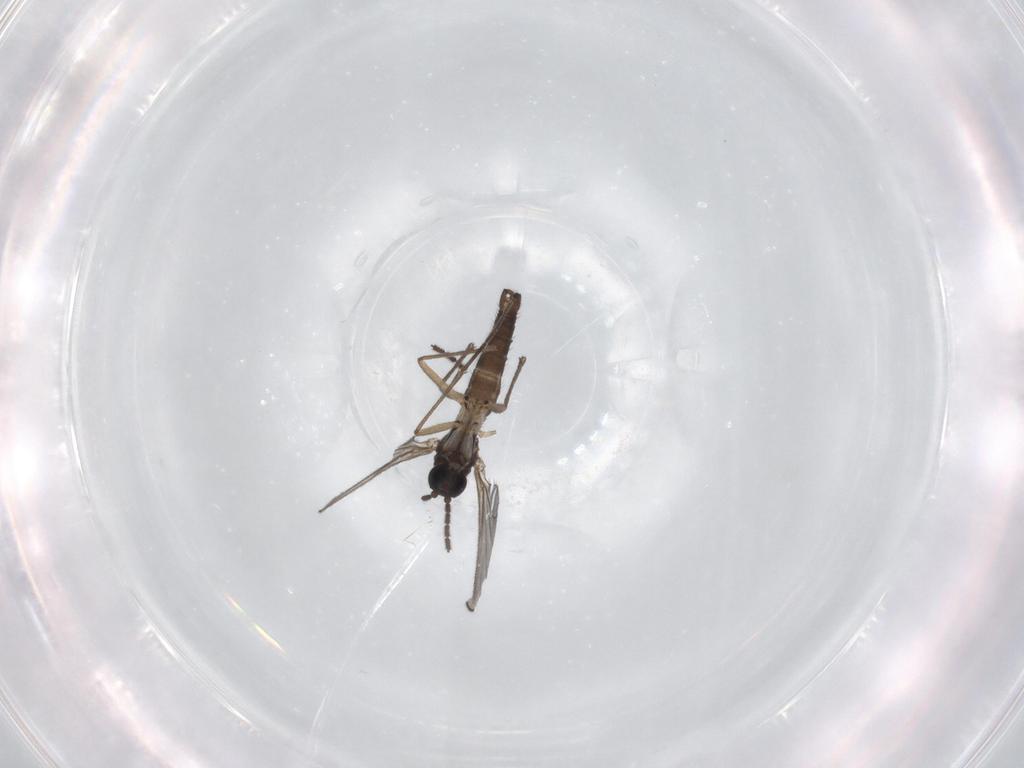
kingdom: Animalia
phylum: Arthropoda
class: Insecta
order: Diptera
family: Sciaridae
